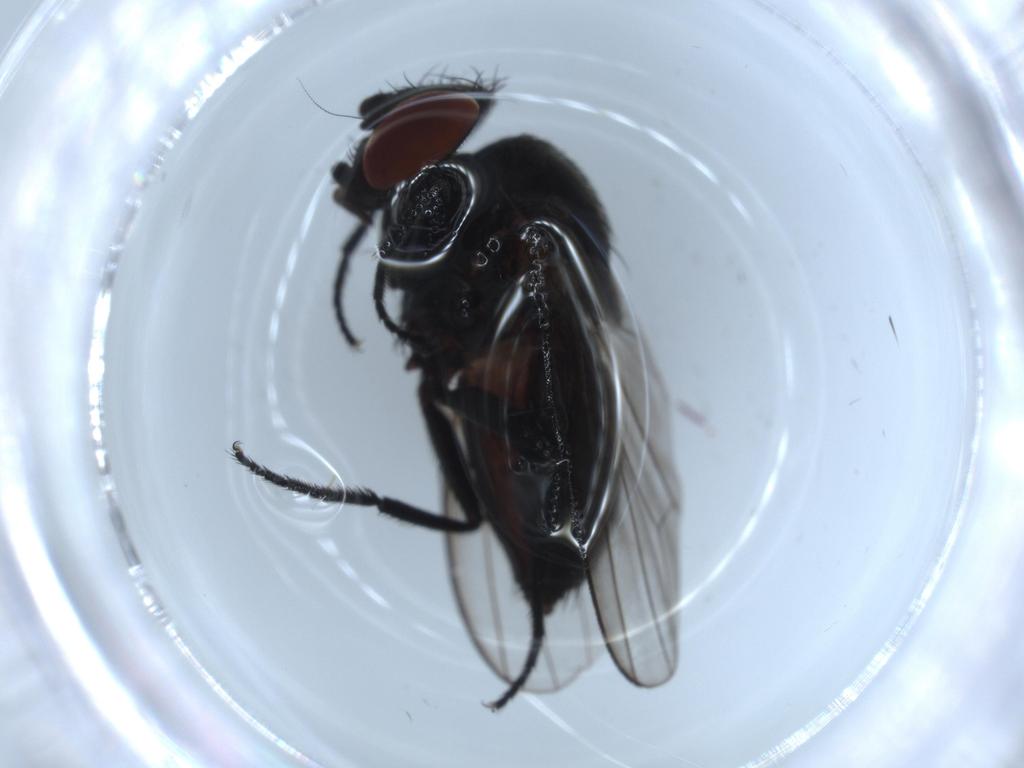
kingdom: Animalia
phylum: Arthropoda
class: Insecta
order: Diptera
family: Milichiidae
